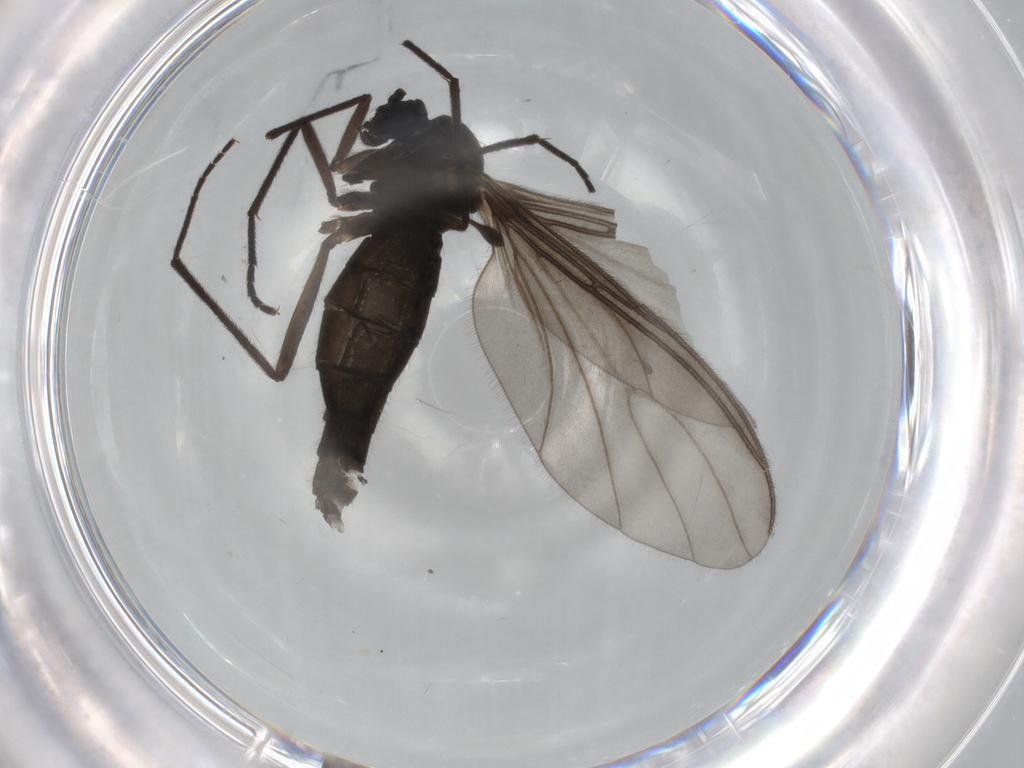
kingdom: Animalia
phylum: Arthropoda
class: Insecta
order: Diptera
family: Sciaridae
